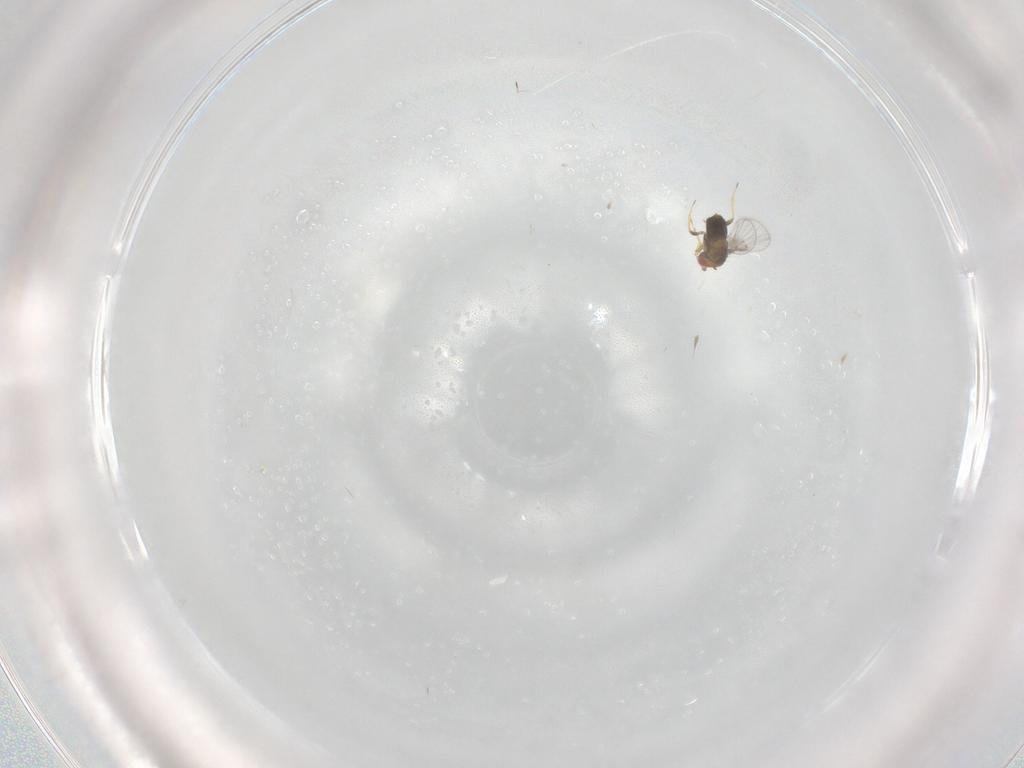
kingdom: Animalia
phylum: Arthropoda
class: Insecta
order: Hymenoptera
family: Trichogrammatidae
